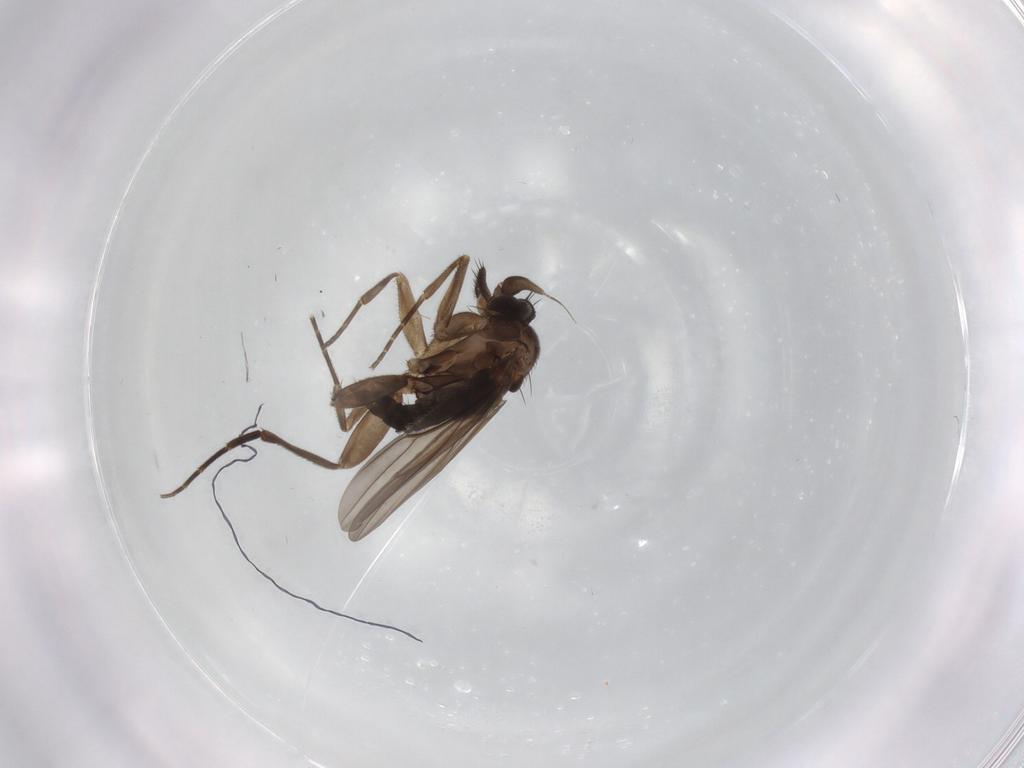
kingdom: Animalia
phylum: Arthropoda
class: Insecta
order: Diptera
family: Phoridae
